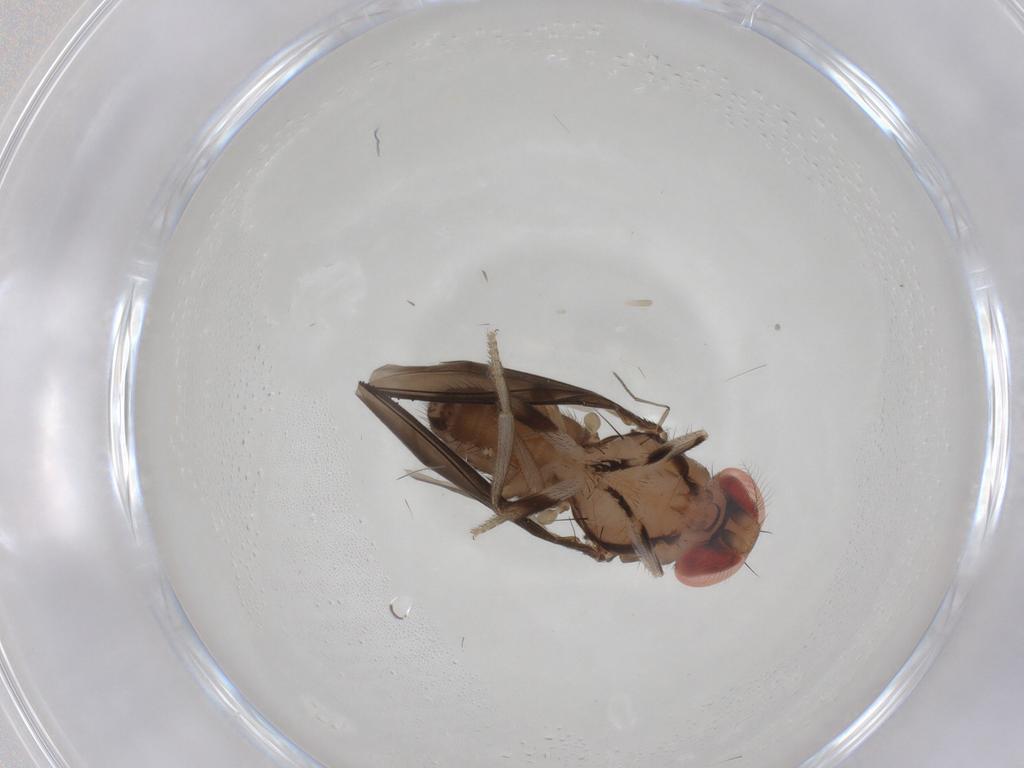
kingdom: Animalia
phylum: Arthropoda
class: Insecta
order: Diptera
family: Drosophilidae
